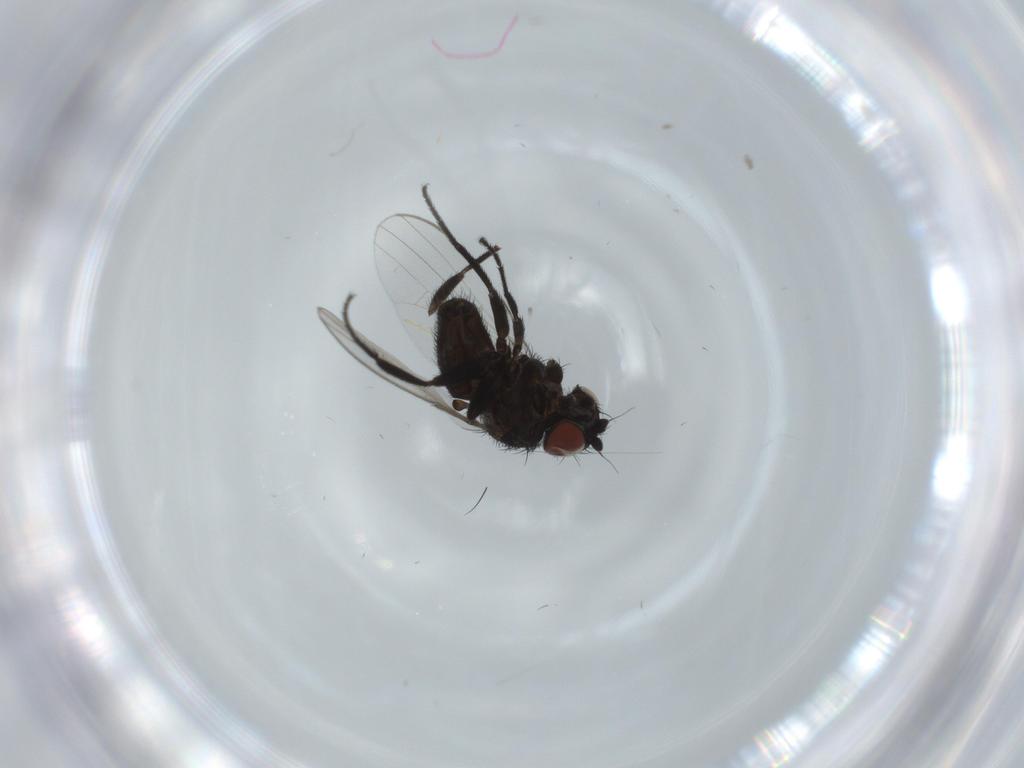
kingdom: Animalia
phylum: Arthropoda
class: Insecta
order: Diptera
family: Milichiidae
